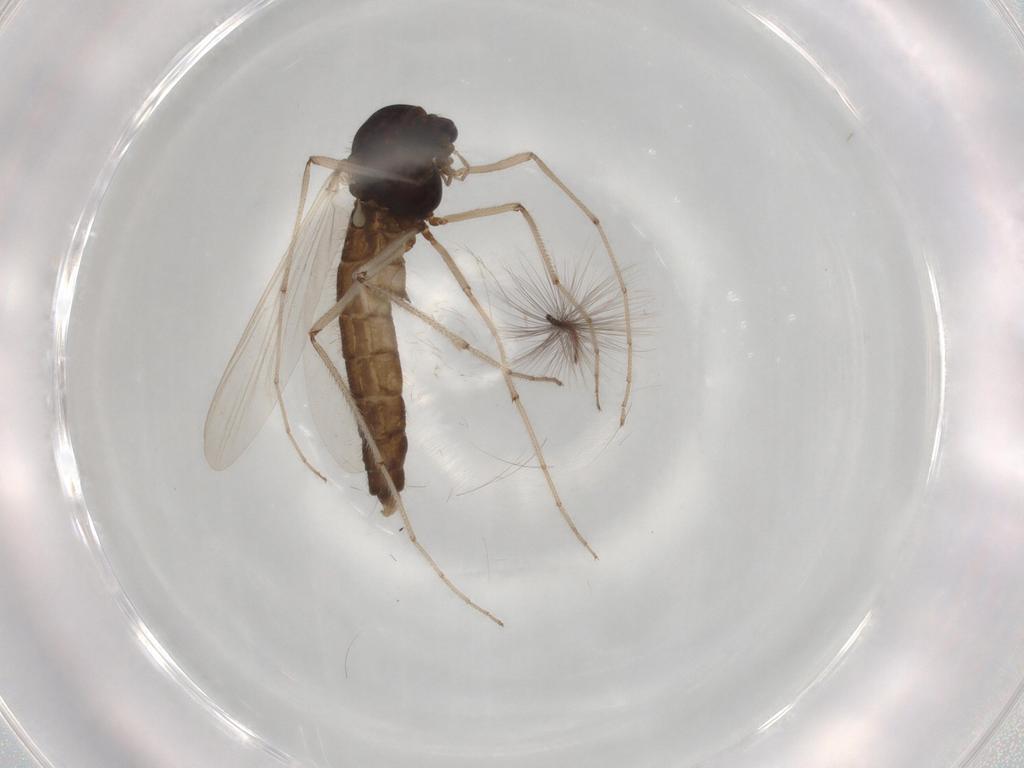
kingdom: Animalia
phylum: Arthropoda
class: Insecta
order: Diptera
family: Chironomidae
